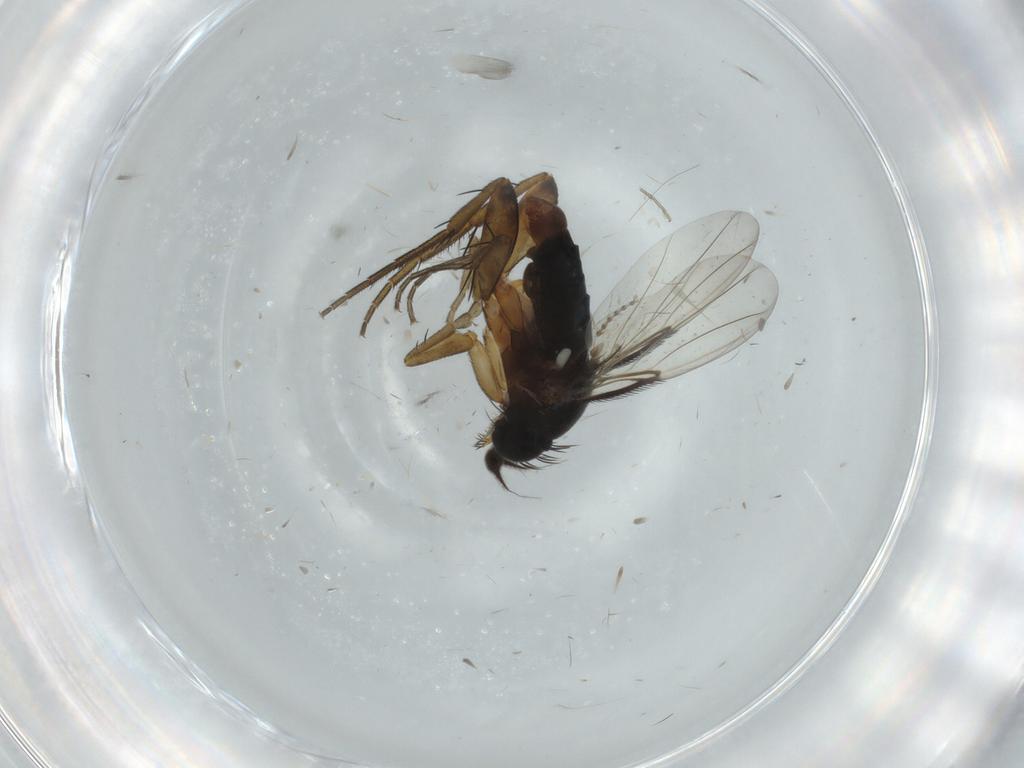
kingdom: Animalia
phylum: Arthropoda
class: Insecta
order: Diptera
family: Phoridae
